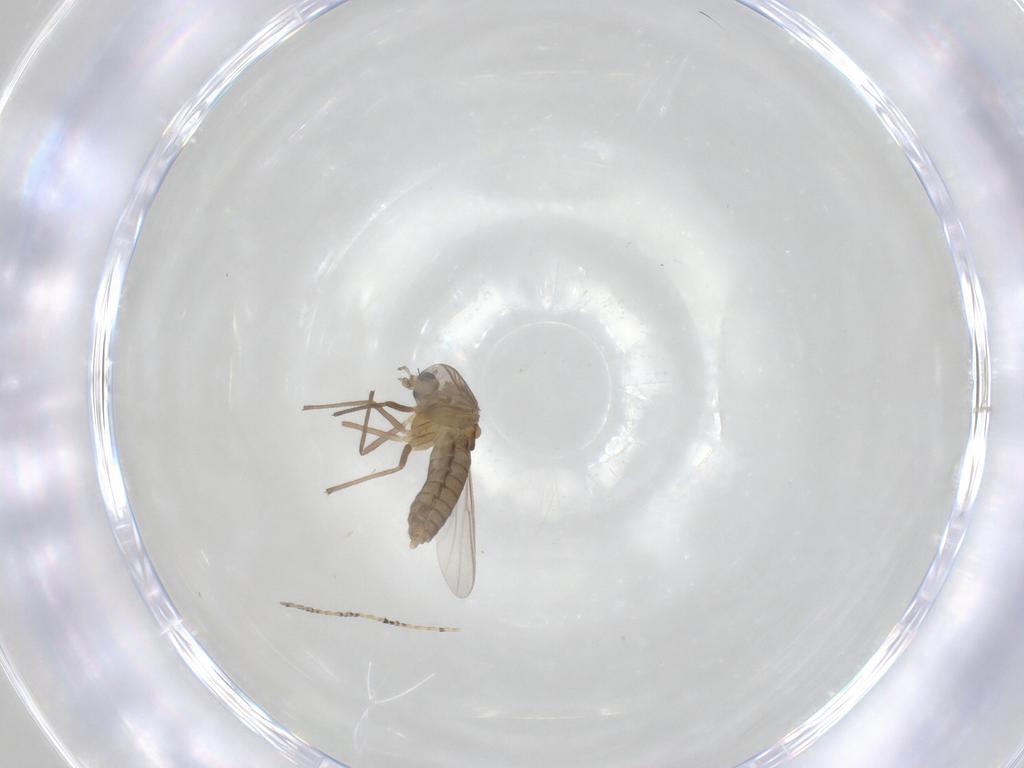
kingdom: Animalia
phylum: Arthropoda
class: Insecta
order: Diptera
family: Chironomidae
